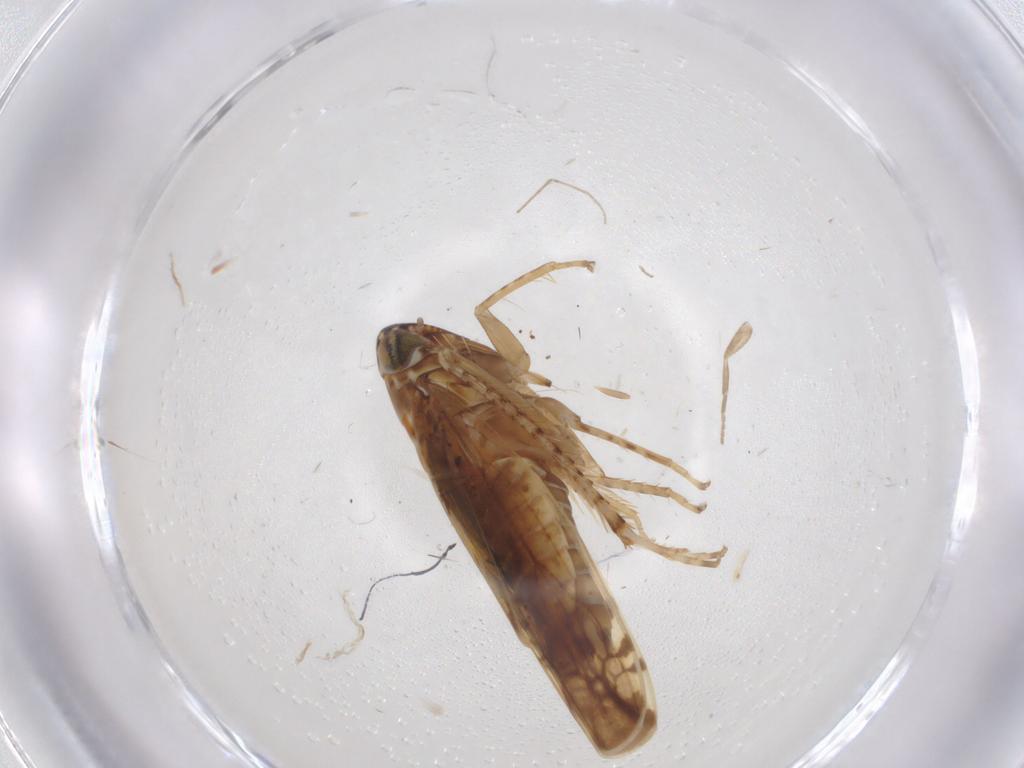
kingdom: Animalia
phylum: Arthropoda
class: Insecta
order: Hemiptera
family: Cicadellidae
